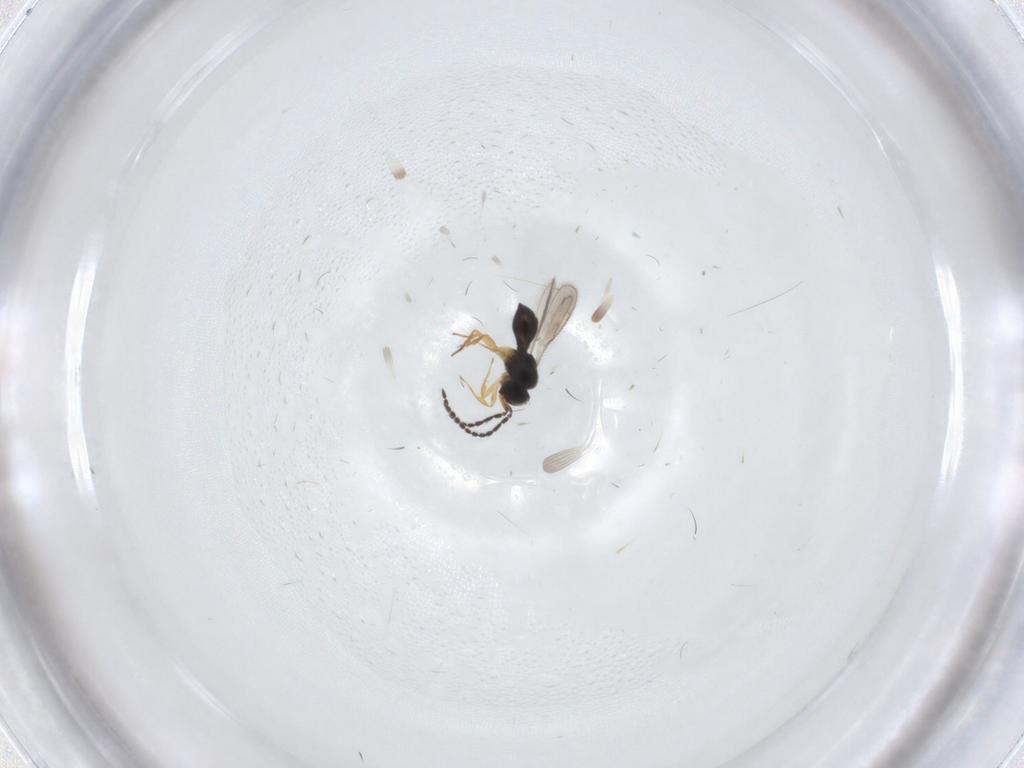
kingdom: Animalia
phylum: Arthropoda
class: Insecta
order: Hymenoptera
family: Scelionidae
